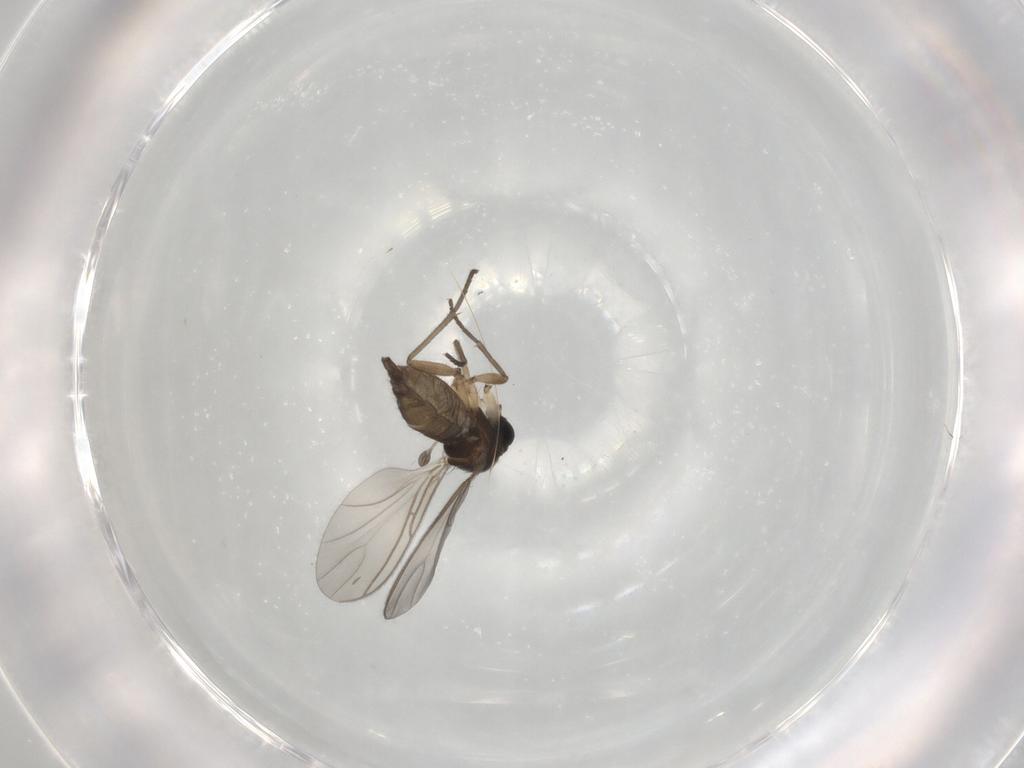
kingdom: Animalia
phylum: Arthropoda
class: Insecta
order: Diptera
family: Sciaridae
